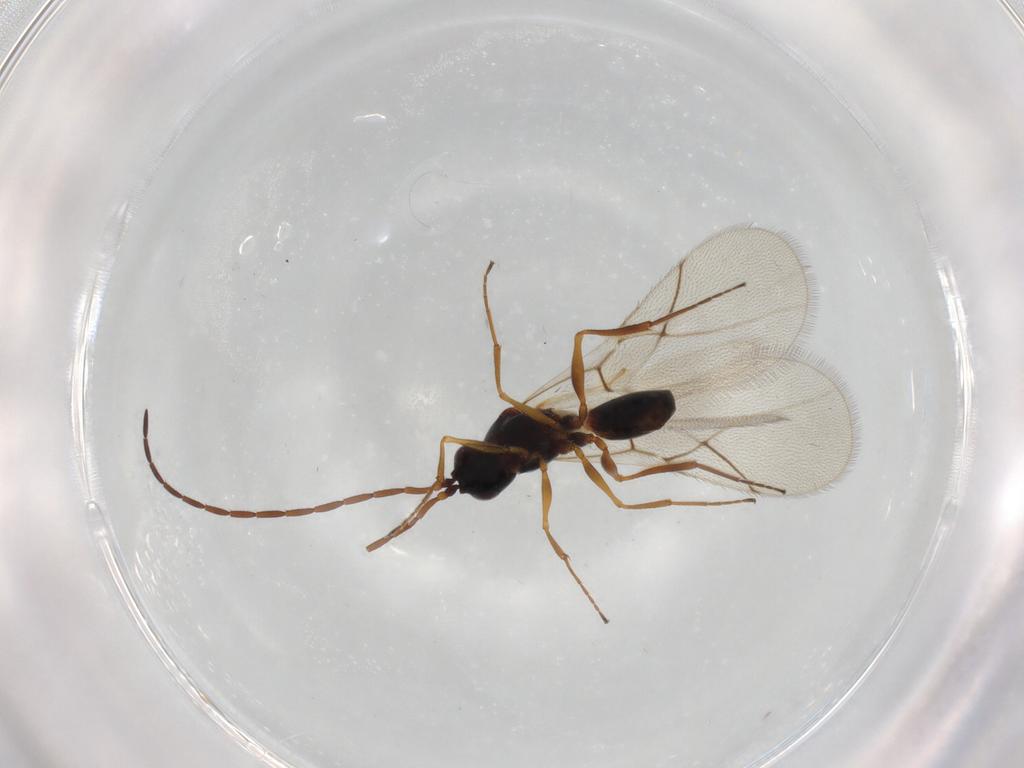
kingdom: Animalia
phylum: Arthropoda
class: Insecta
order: Hymenoptera
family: Figitidae
